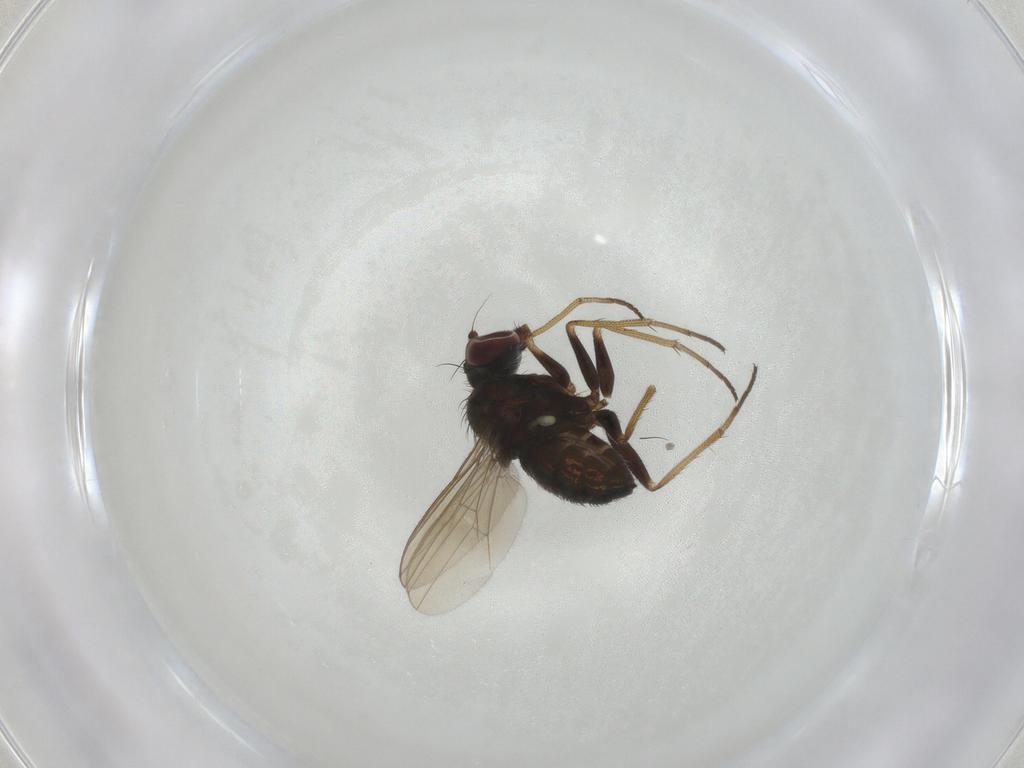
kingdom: Animalia
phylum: Arthropoda
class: Insecta
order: Diptera
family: Dolichopodidae
